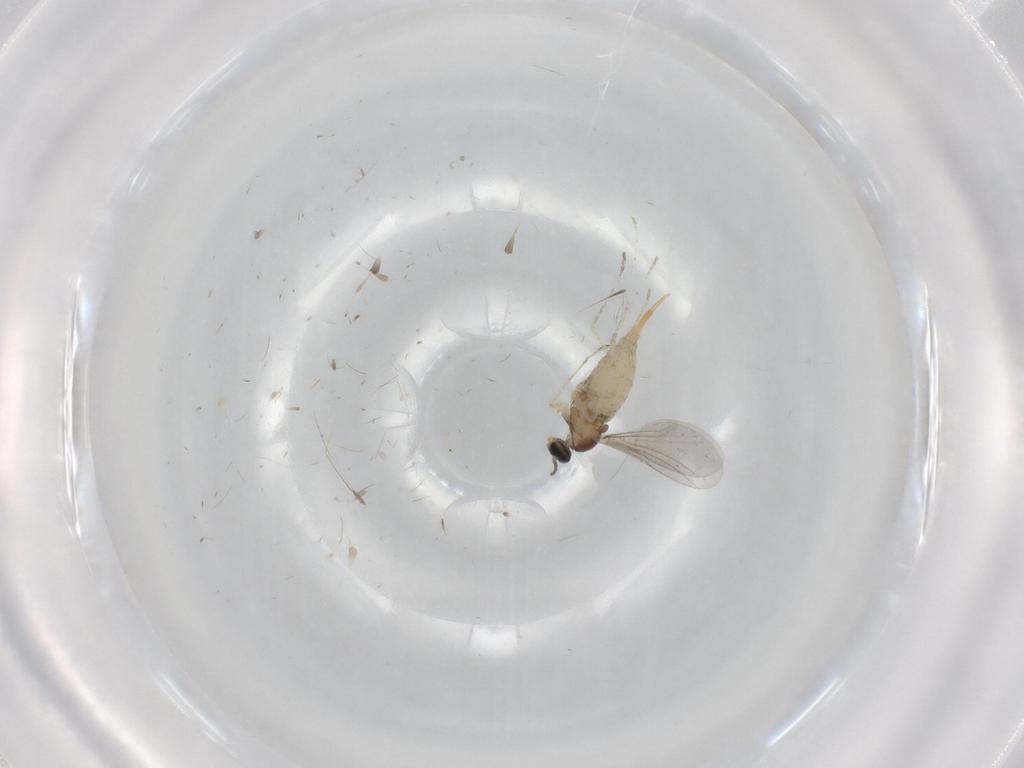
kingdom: Animalia
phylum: Arthropoda
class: Insecta
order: Diptera
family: Cecidomyiidae
